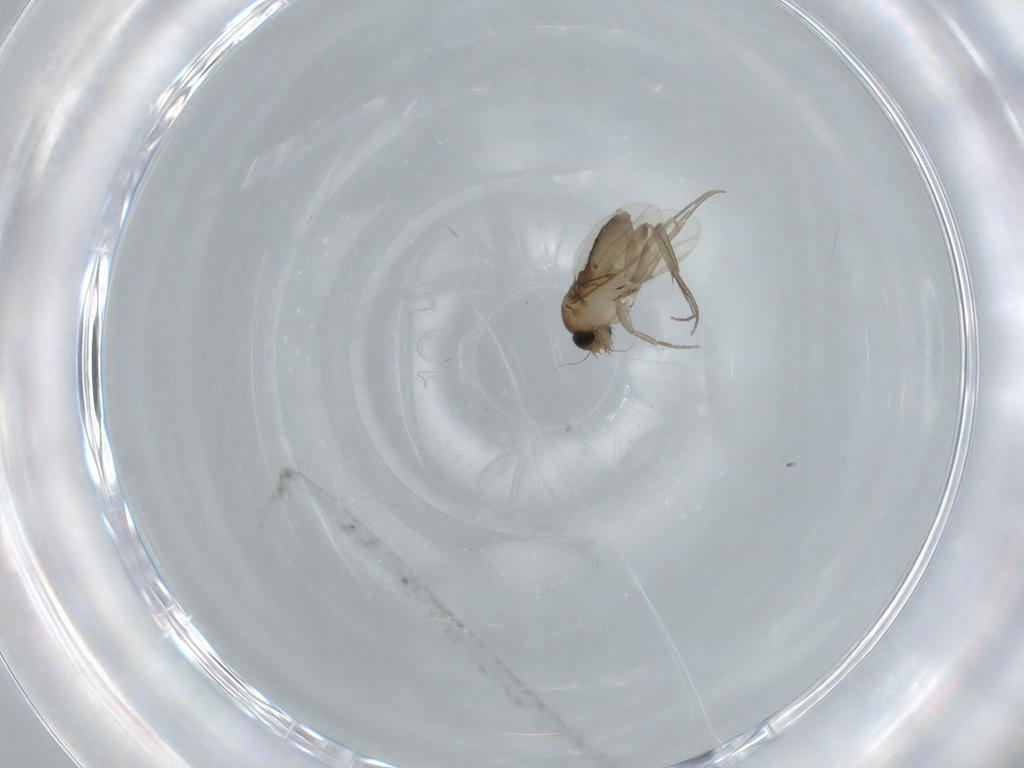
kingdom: Animalia
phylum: Arthropoda
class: Insecta
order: Diptera
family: Phoridae
